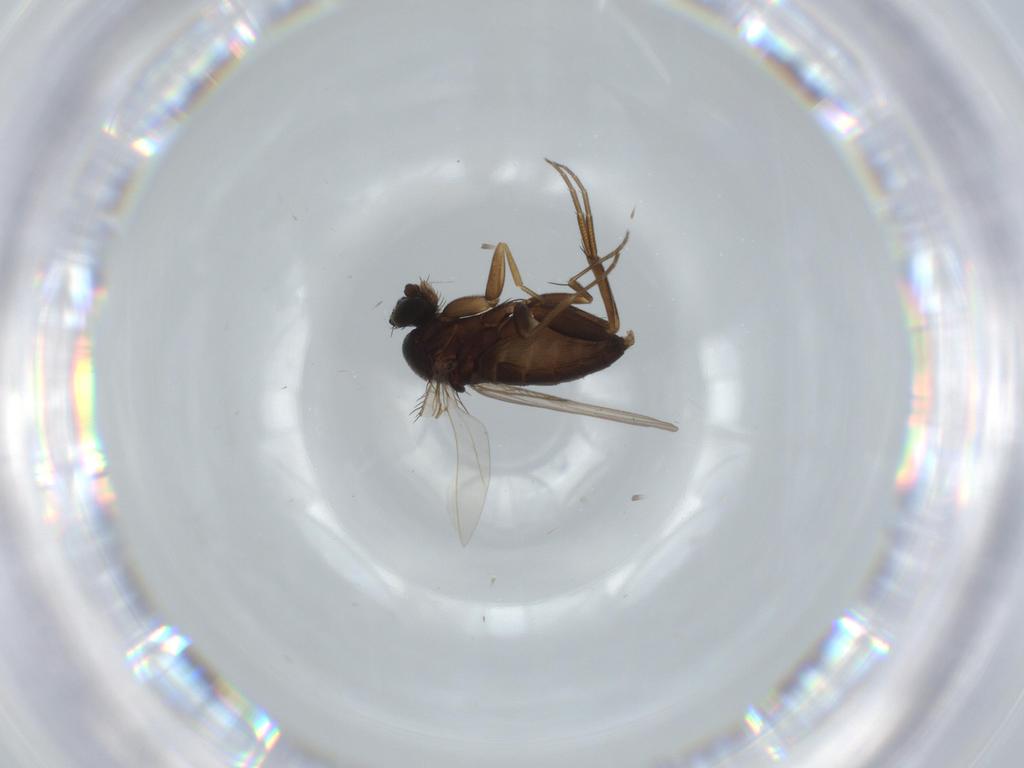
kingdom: Animalia
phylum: Arthropoda
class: Insecta
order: Diptera
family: Phoridae
